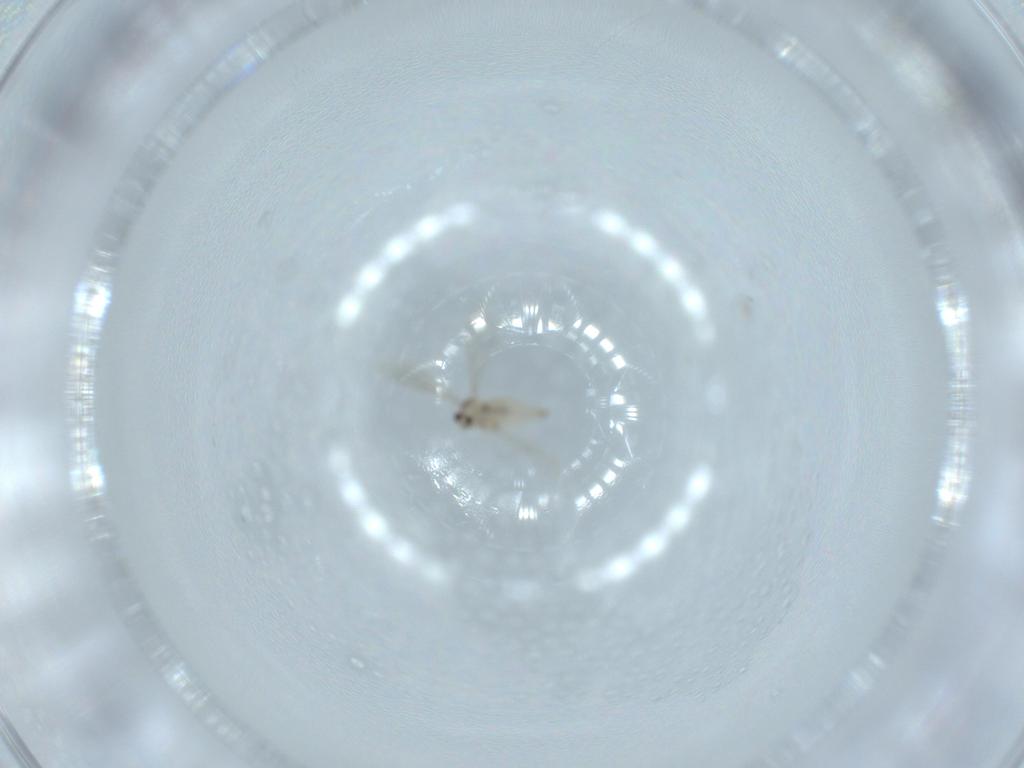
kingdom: Animalia
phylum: Arthropoda
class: Insecta
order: Diptera
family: Cecidomyiidae
